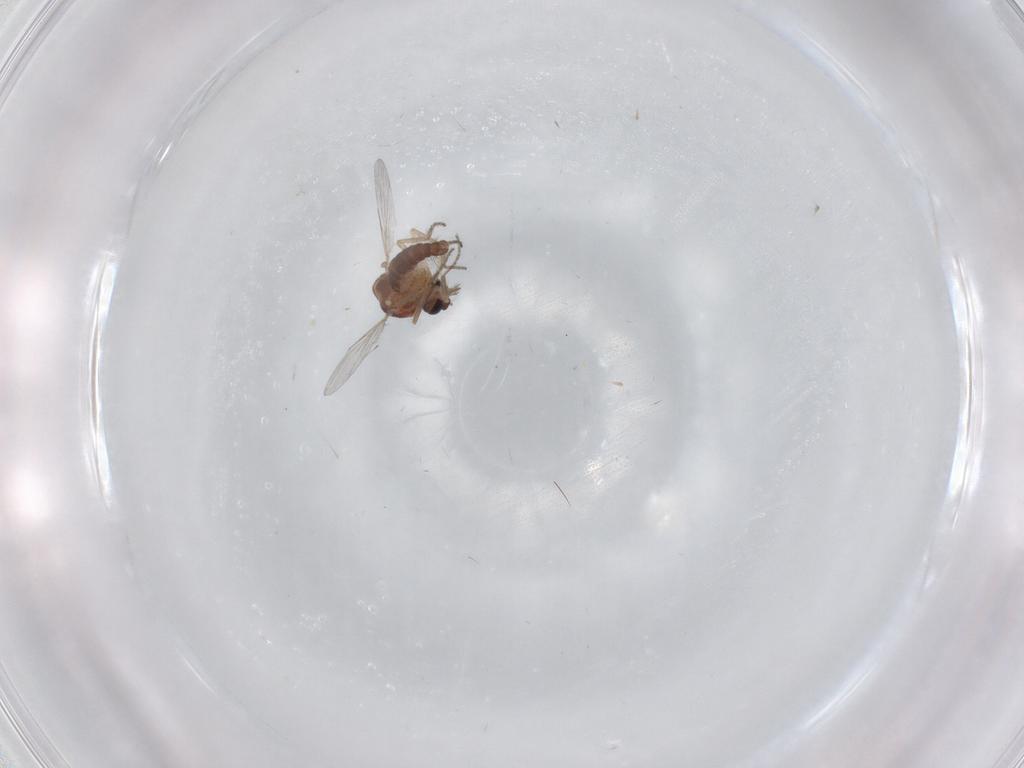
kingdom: Animalia
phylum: Arthropoda
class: Insecta
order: Diptera
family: Ceratopogonidae
